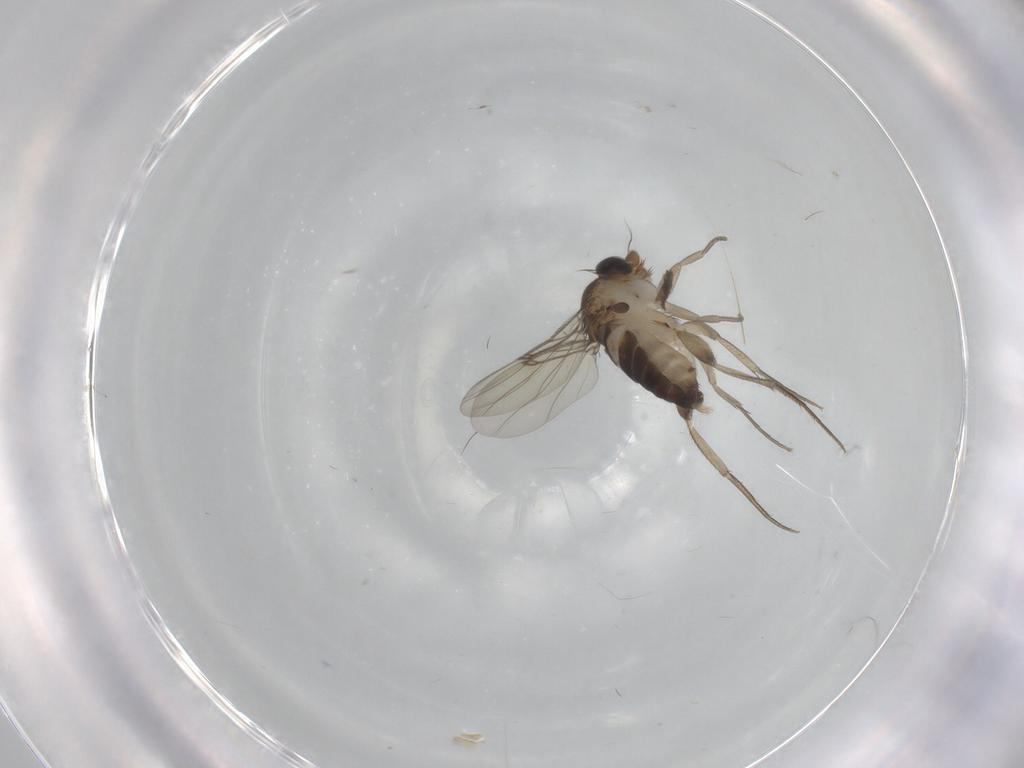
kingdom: Animalia
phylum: Arthropoda
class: Insecta
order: Diptera
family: Phoridae
